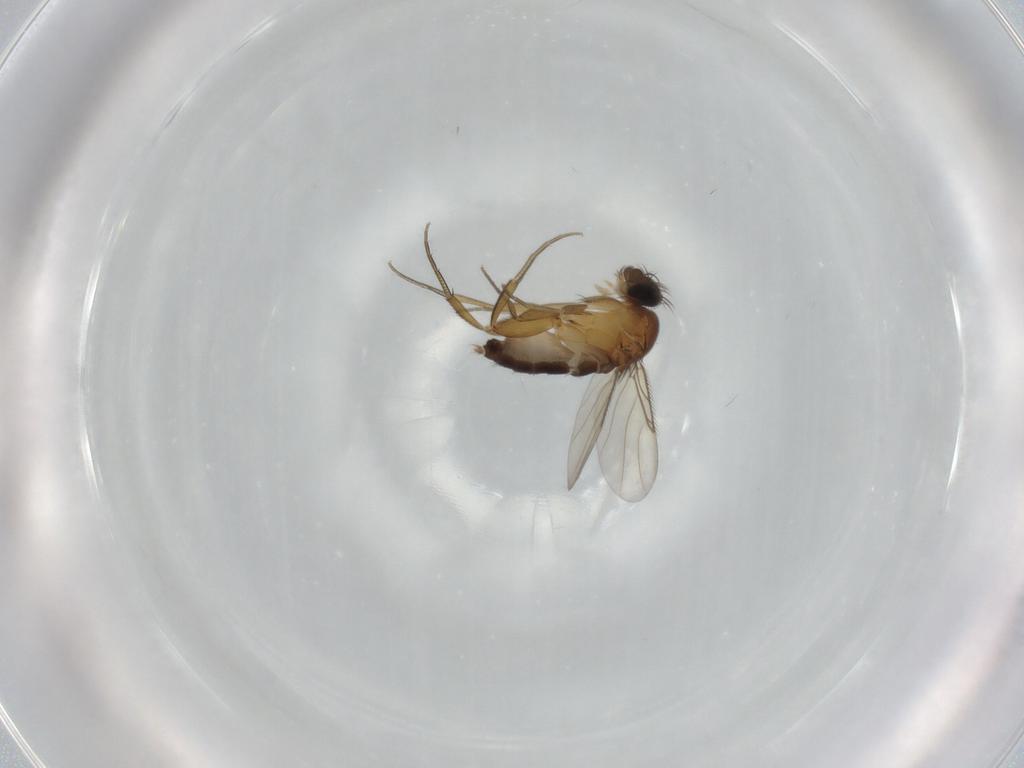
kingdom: Animalia
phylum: Arthropoda
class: Insecta
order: Diptera
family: Phoridae
